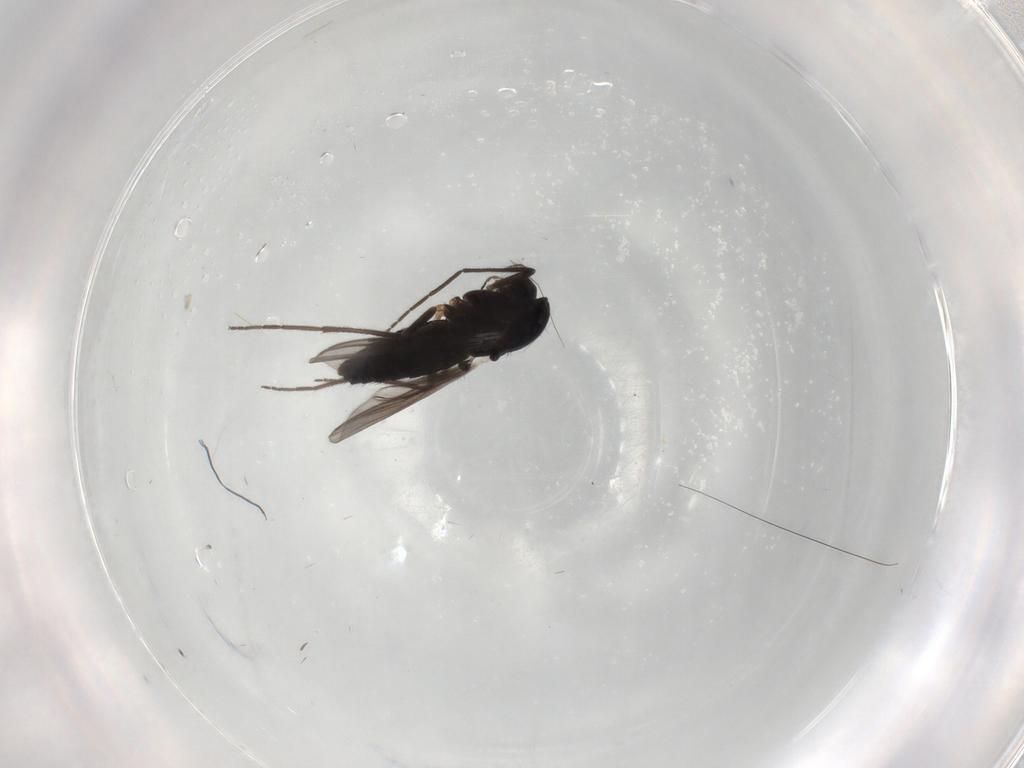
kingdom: Animalia
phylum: Arthropoda
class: Insecta
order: Diptera
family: Chironomidae
